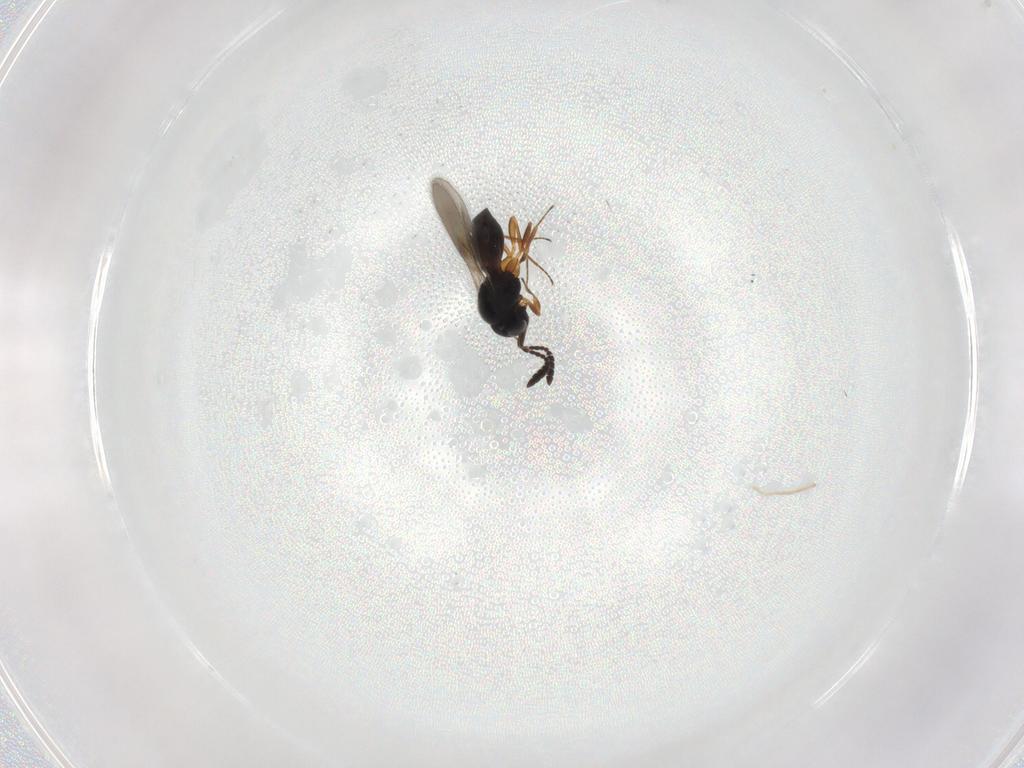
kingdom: Animalia
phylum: Arthropoda
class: Insecta
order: Hymenoptera
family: Scelionidae
